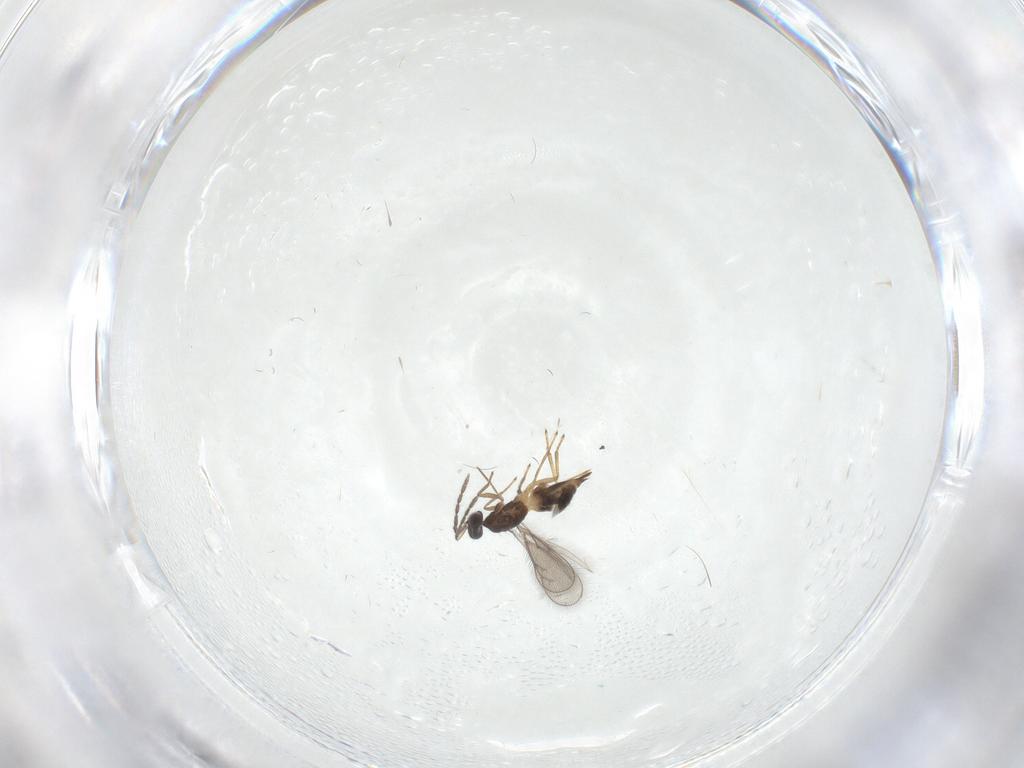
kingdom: Animalia
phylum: Arthropoda
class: Insecta
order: Hymenoptera
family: Eulophidae
